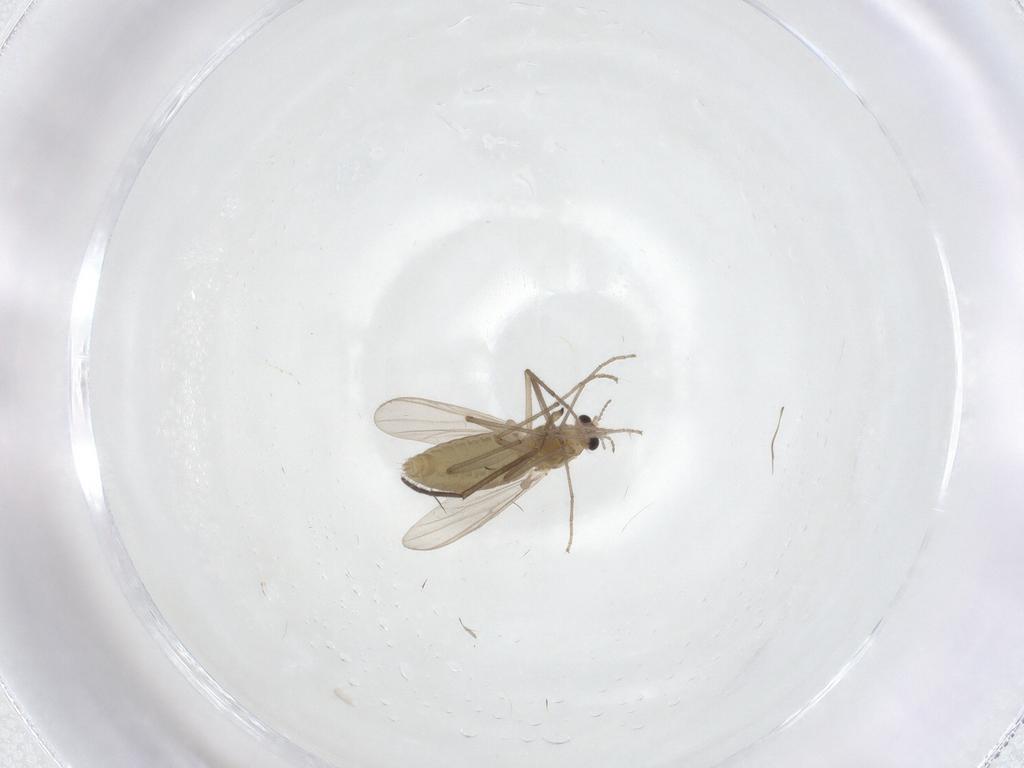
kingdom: Animalia
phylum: Arthropoda
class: Insecta
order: Diptera
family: Chironomidae
